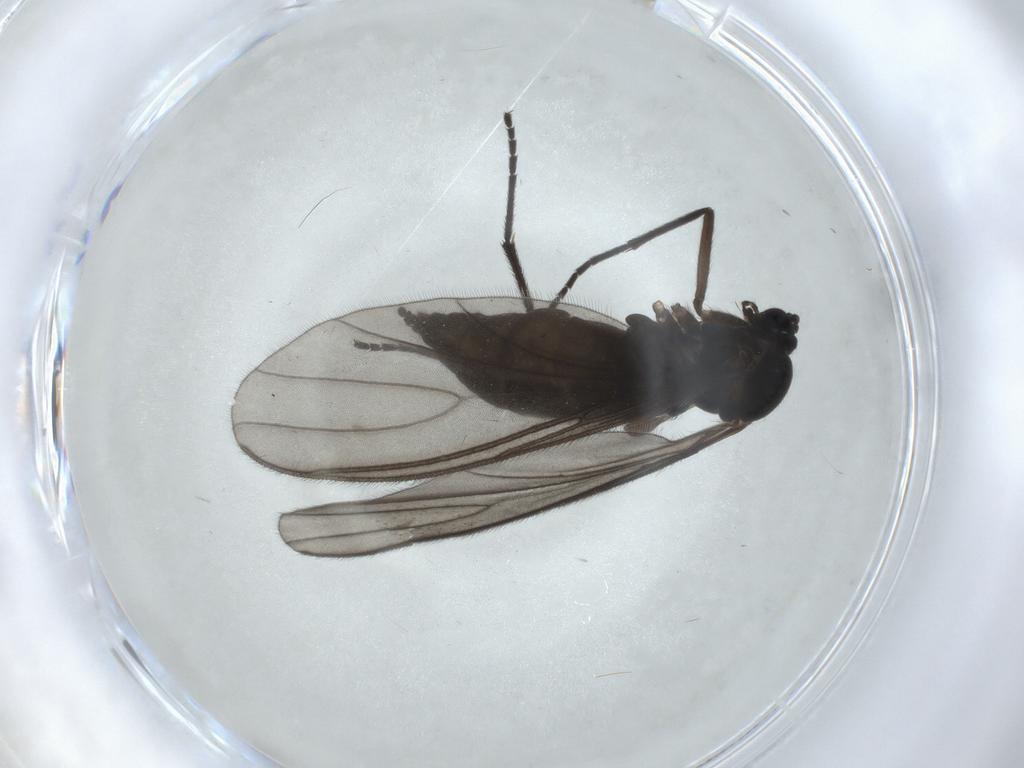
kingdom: Animalia
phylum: Arthropoda
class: Insecta
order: Diptera
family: Sciaridae
